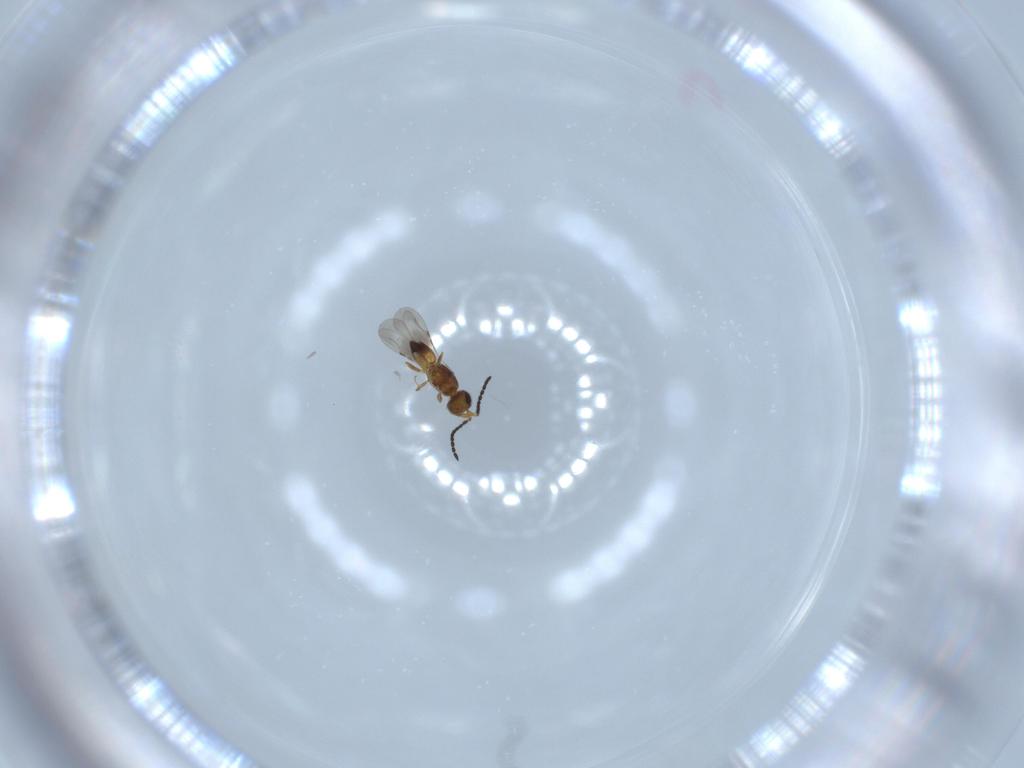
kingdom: Animalia
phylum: Arthropoda
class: Insecta
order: Hymenoptera
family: Ceraphronidae
